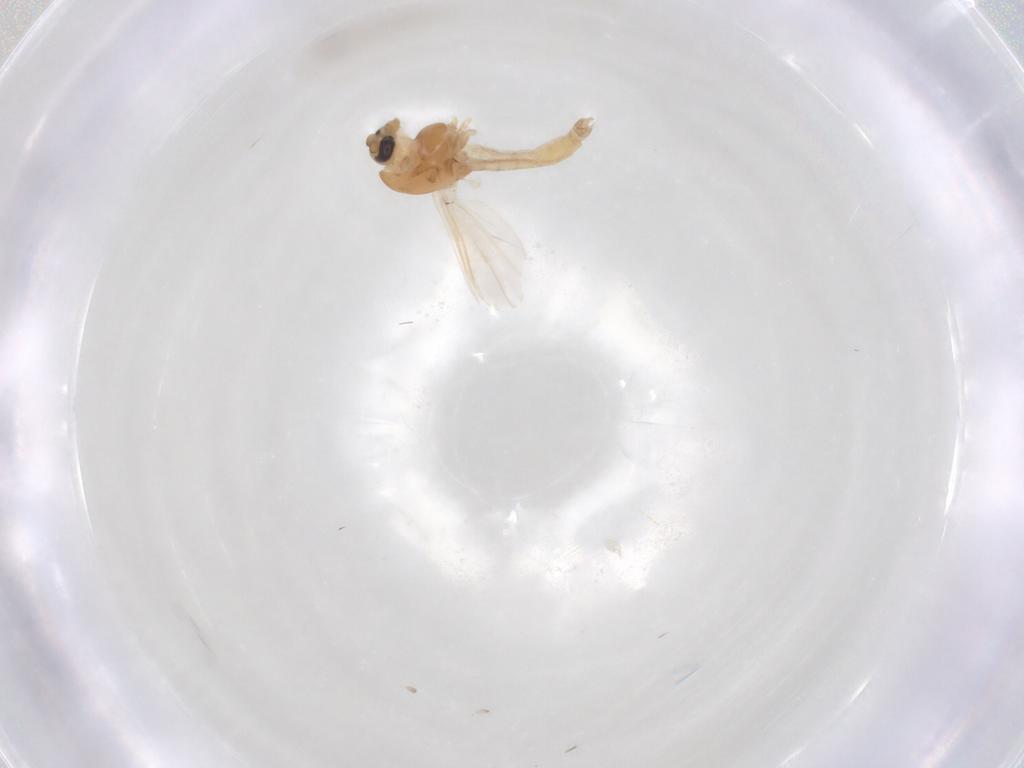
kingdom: Animalia
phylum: Arthropoda
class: Insecta
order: Diptera
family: Chironomidae
